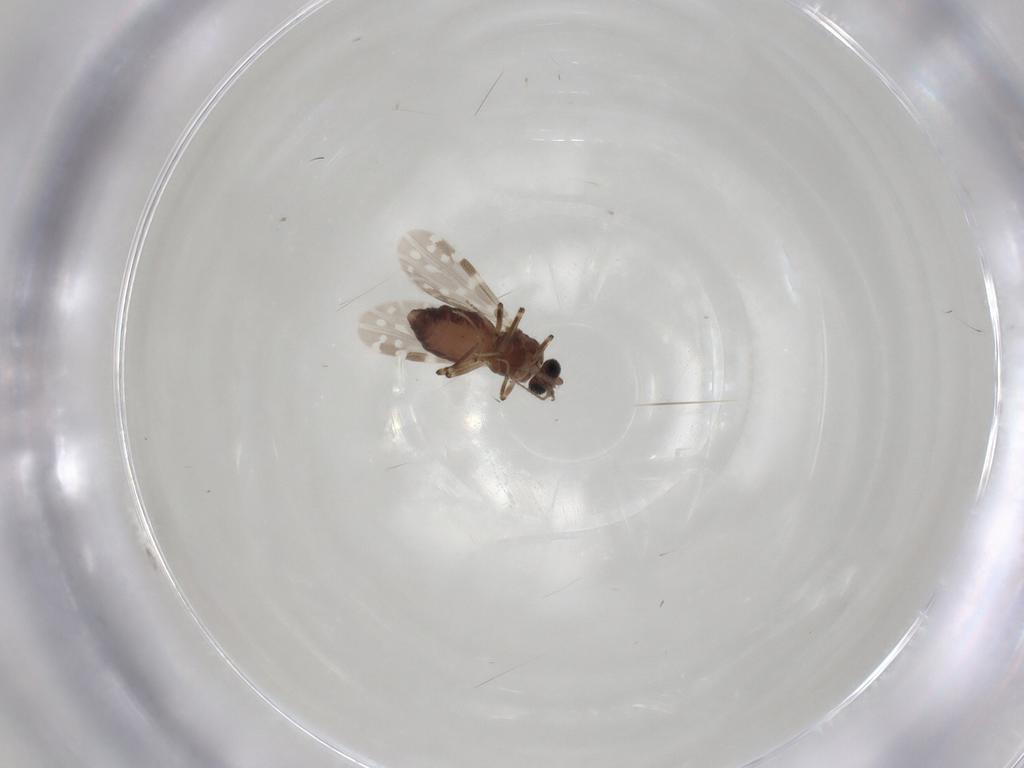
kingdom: Animalia
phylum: Arthropoda
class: Insecta
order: Diptera
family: Ceratopogonidae
